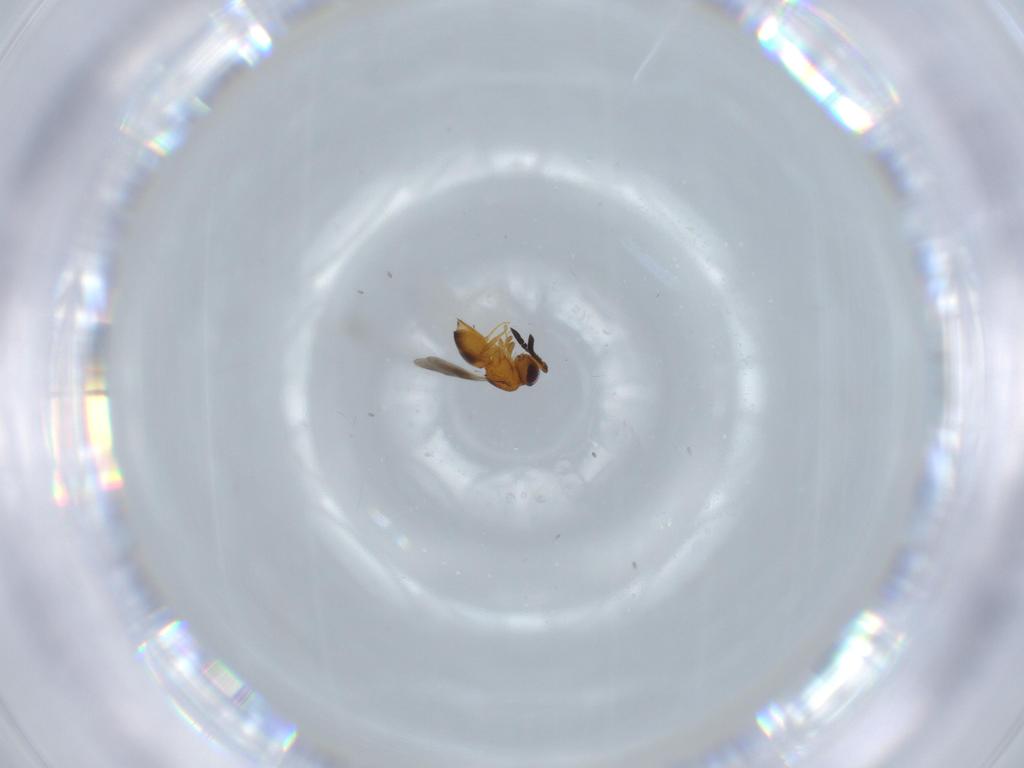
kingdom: Animalia
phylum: Arthropoda
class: Insecta
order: Hymenoptera
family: Ceraphronidae
